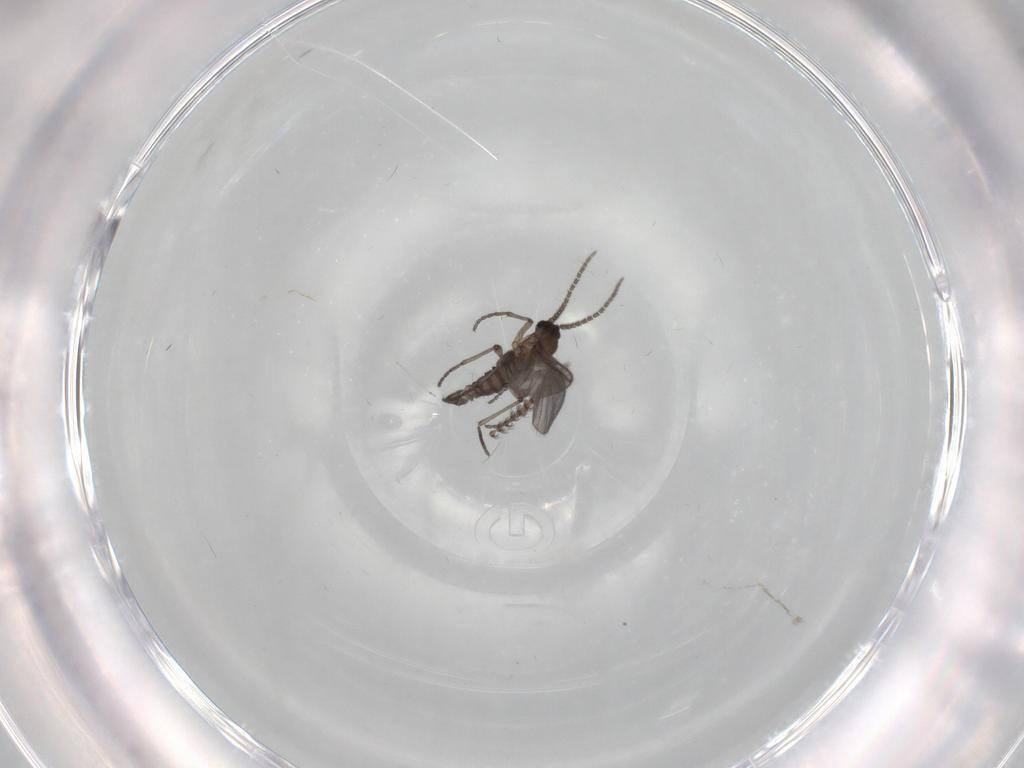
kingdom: Animalia
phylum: Arthropoda
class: Insecta
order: Diptera
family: Sciaridae
